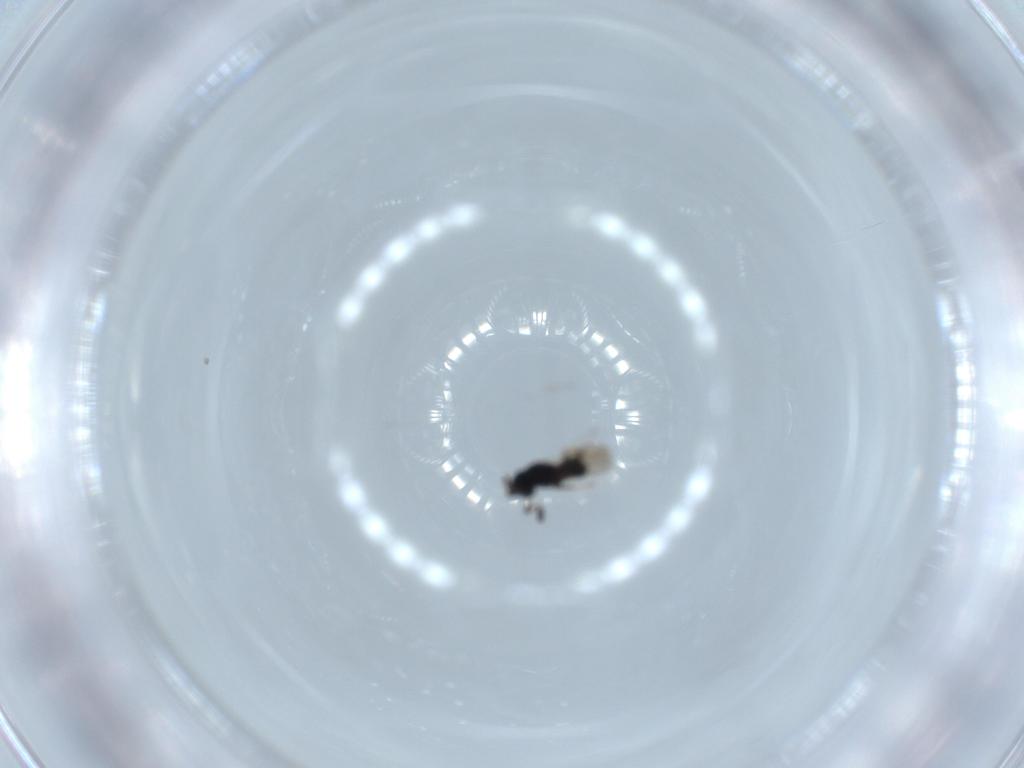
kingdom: Animalia
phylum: Arthropoda
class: Insecta
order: Hymenoptera
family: Scelionidae
